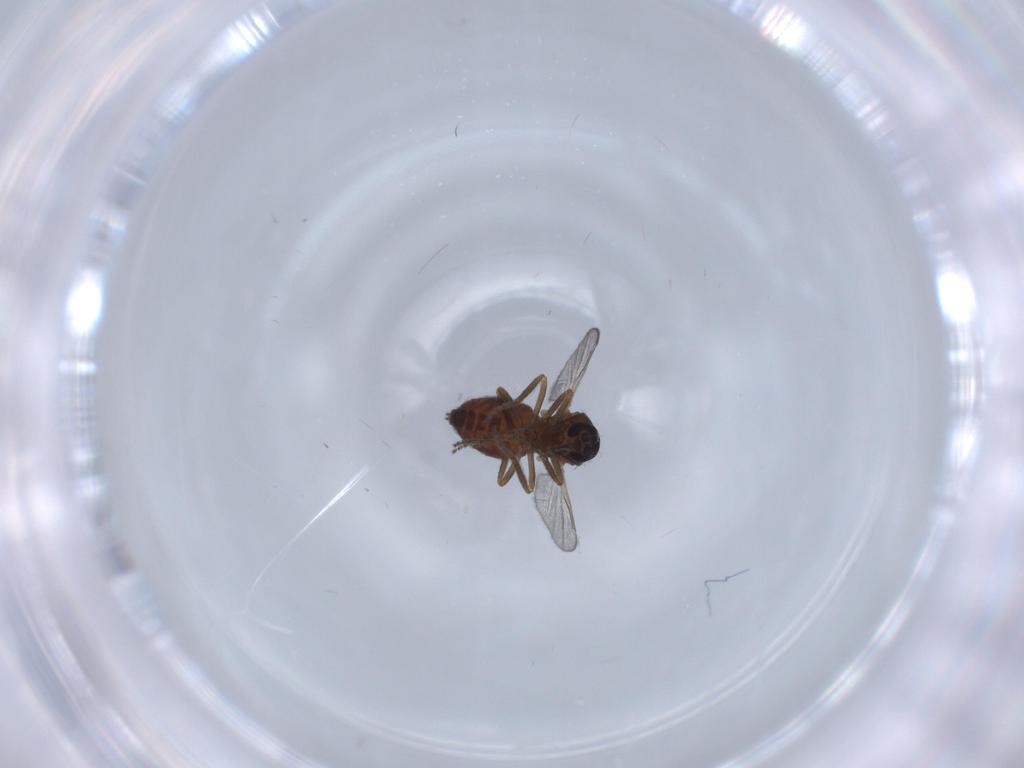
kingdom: Animalia
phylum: Arthropoda
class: Insecta
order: Diptera
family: Ceratopogonidae
